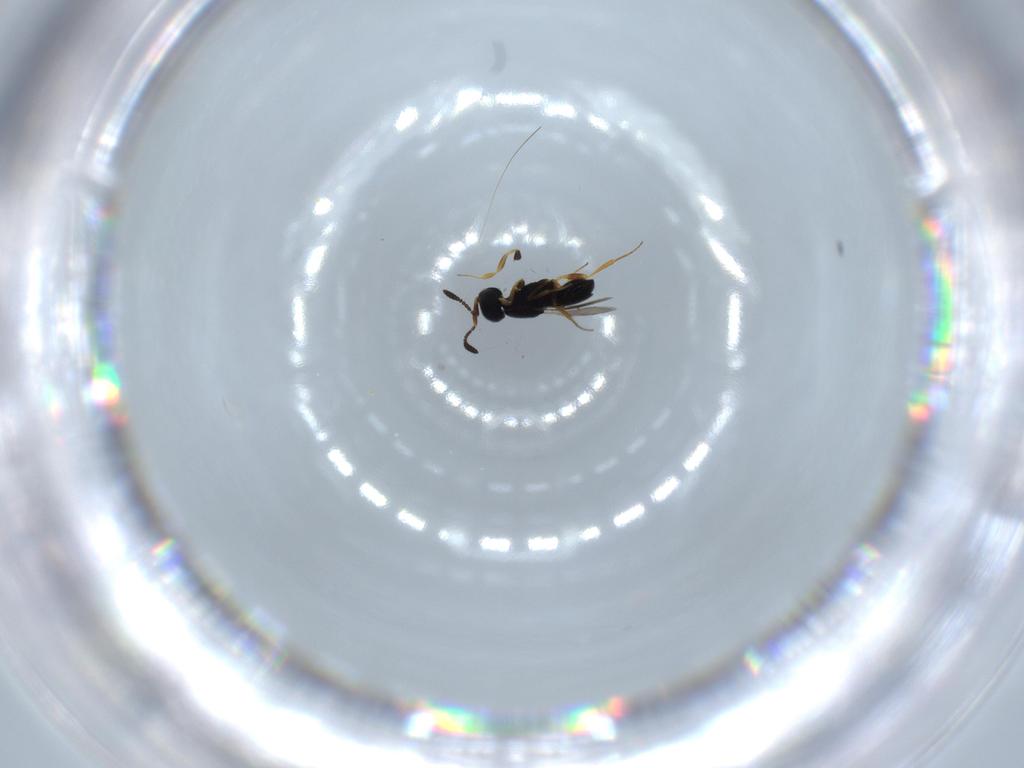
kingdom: Animalia
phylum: Arthropoda
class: Insecta
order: Hymenoptera
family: Scelionidae
